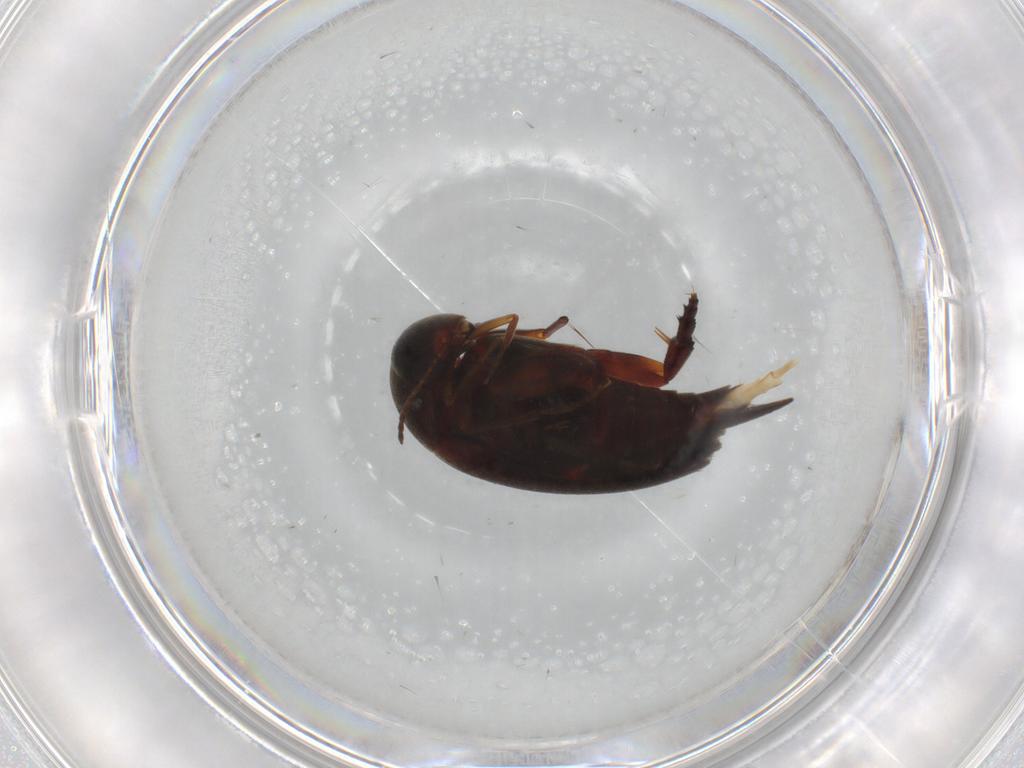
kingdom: Animalia
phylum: Arthropoda
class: Insecta
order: Coleoptera
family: Mordellidae
